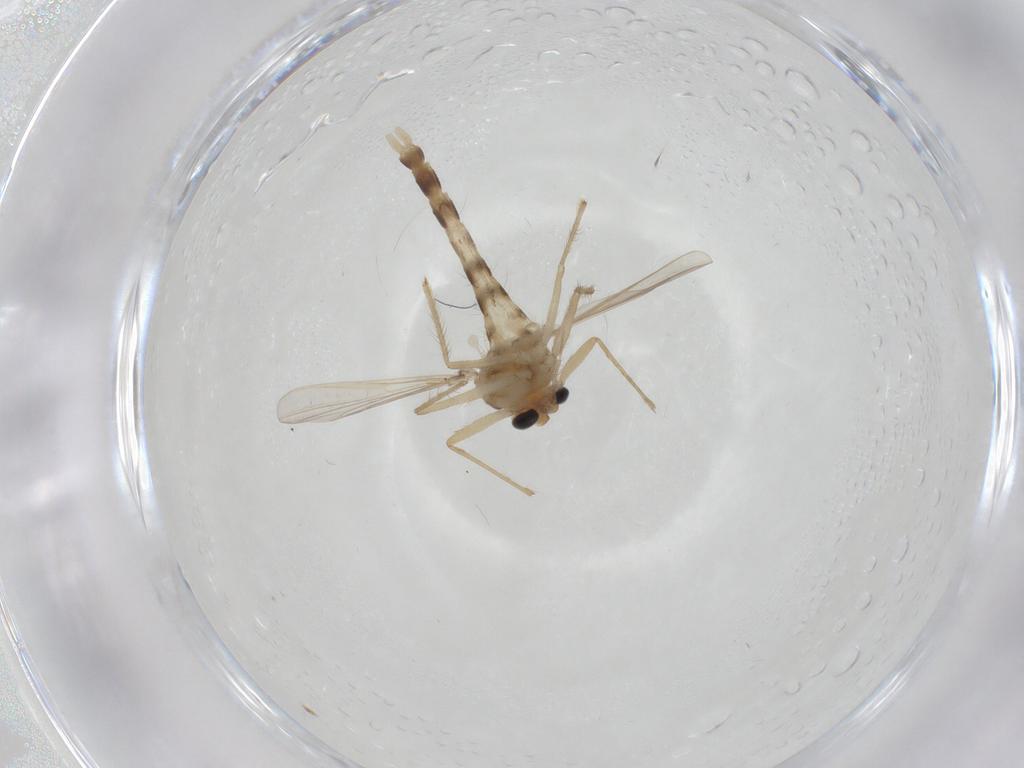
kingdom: Animalia
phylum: Arthropoda
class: Insecta
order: Diptera
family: Chironomidae
